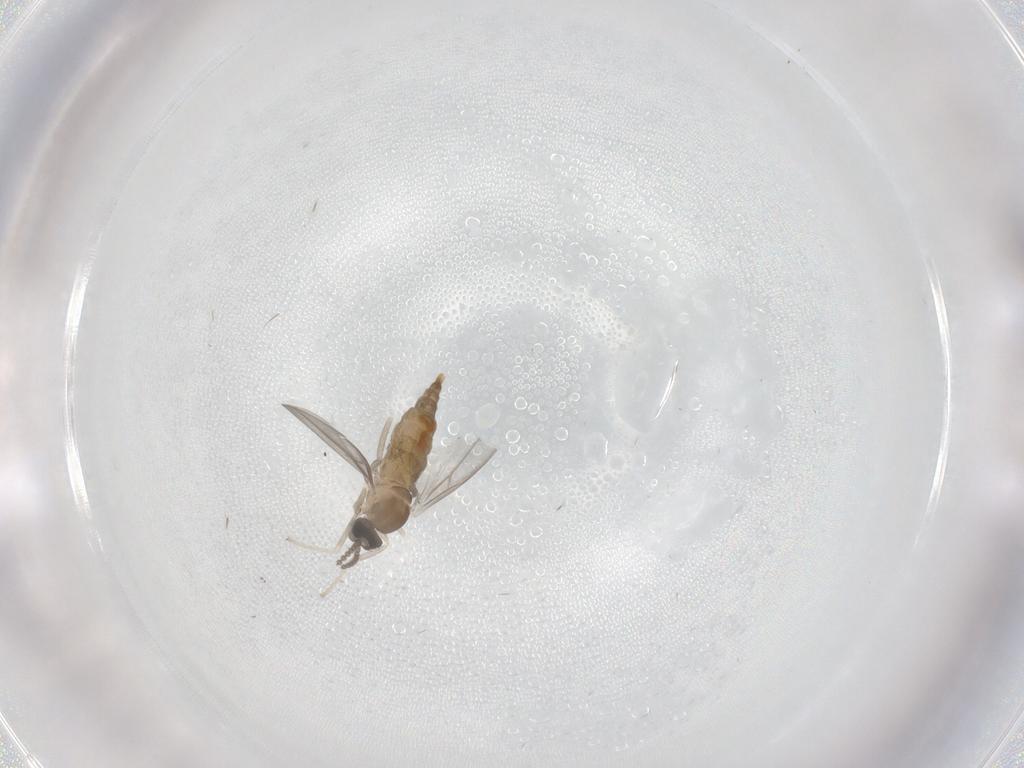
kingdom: Animalia
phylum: Arthropoda
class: Insecta
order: Diptera
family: Cecidomyiidae
